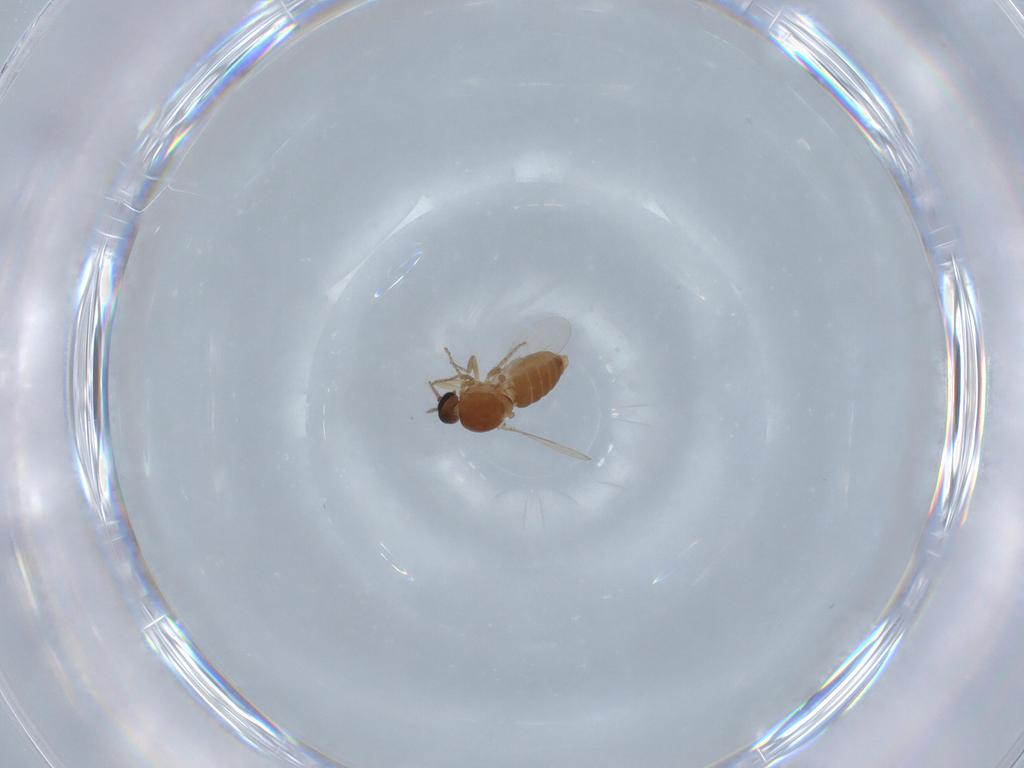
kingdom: Animalia
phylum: Arthropoda
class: Insecta
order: Diptera
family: Ceratopogonidae
